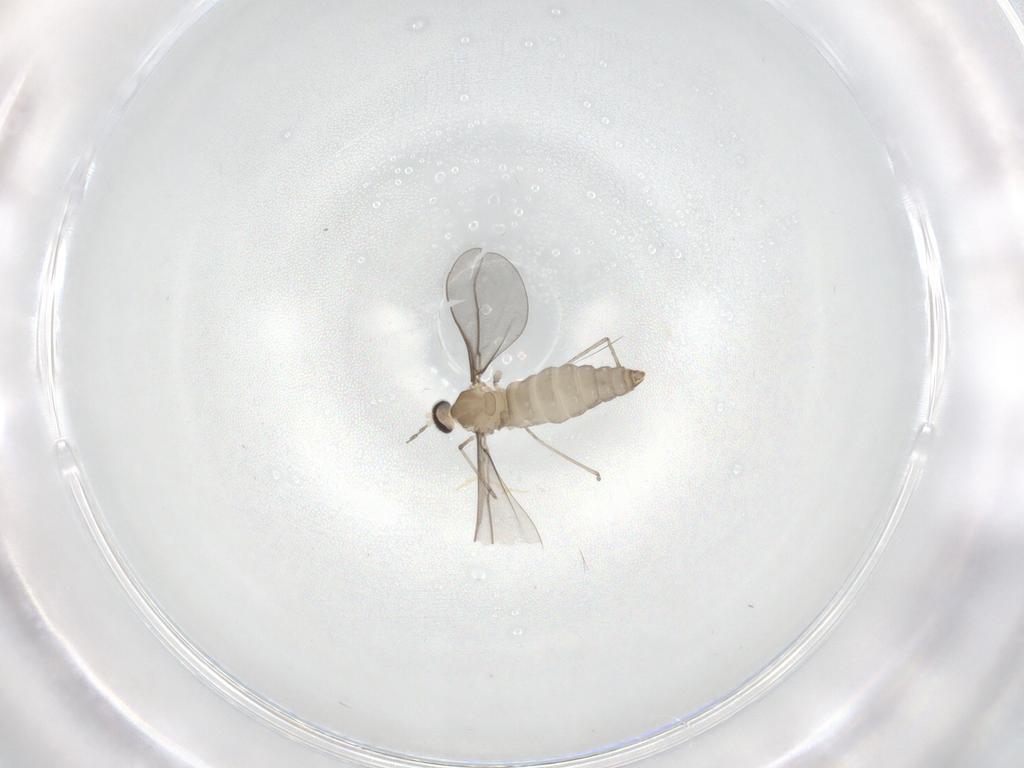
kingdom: Animalia
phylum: Arthropoda
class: Insecta
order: Diptera
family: Cecidomyiidae
